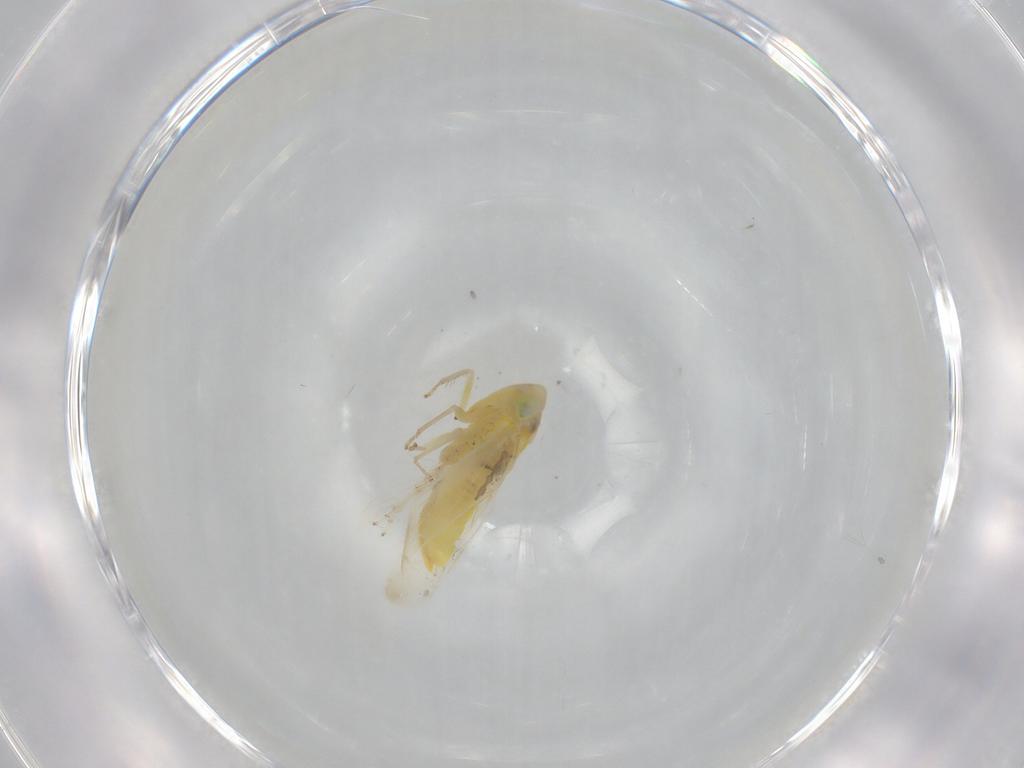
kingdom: Animalia
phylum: Arthropoda
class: Insecta
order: Hemiptera
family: Cicadellidae
